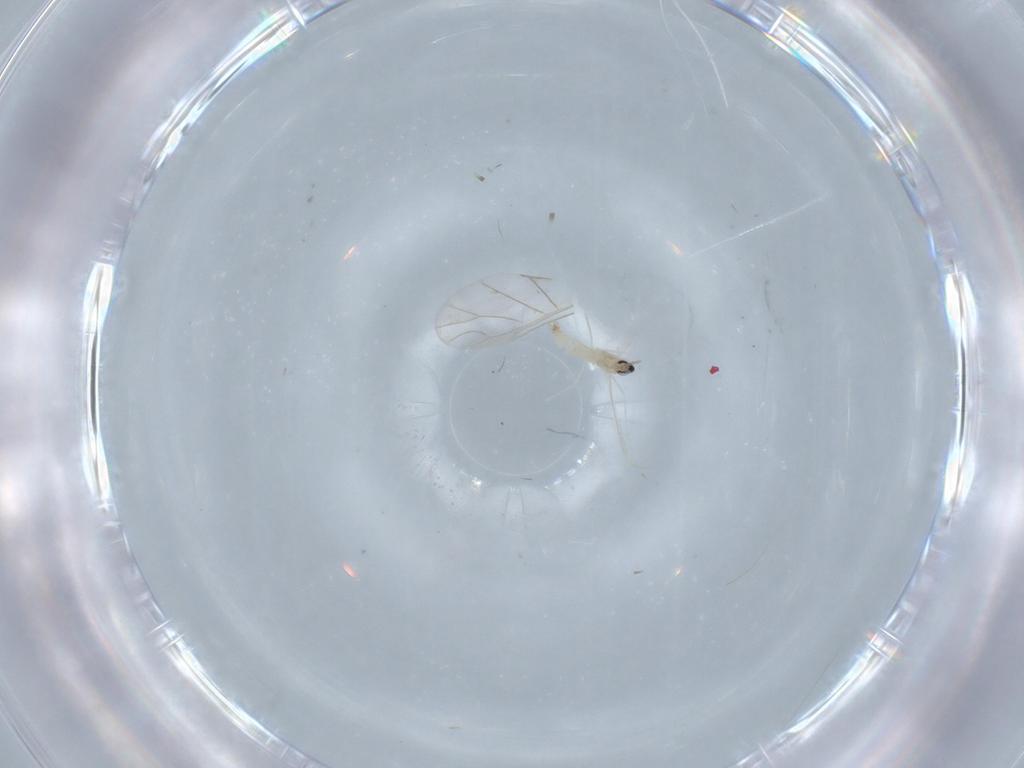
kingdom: Animalia
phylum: Arthropoda
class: Insecta
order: Diptera
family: Cecidomyiidae
